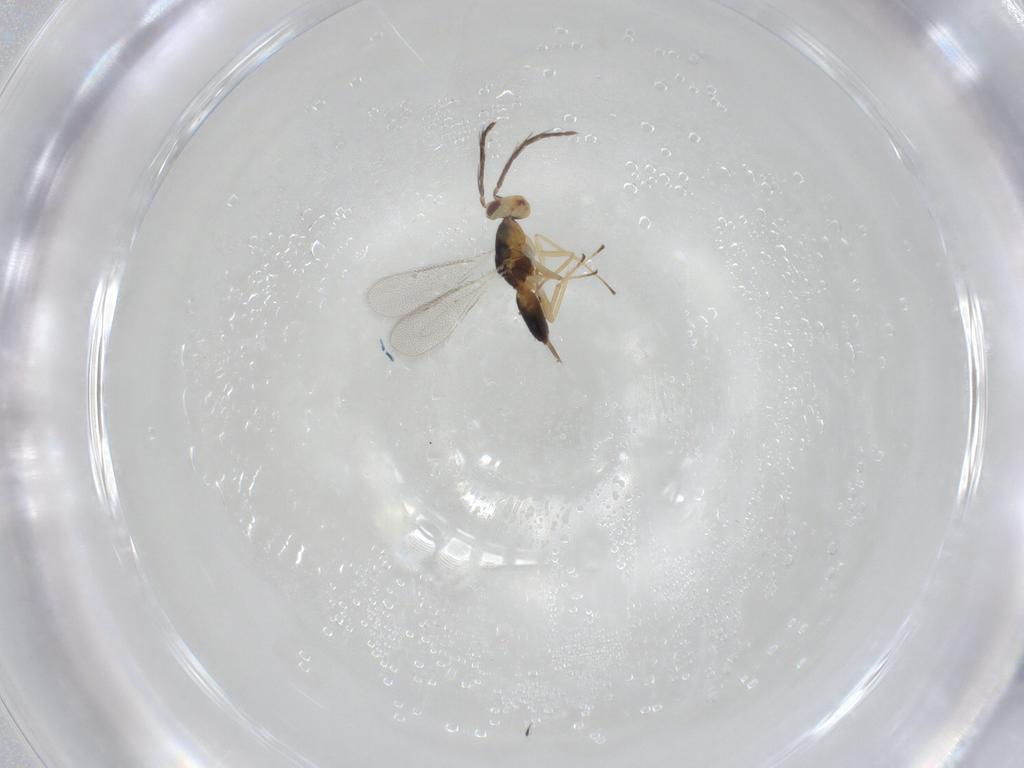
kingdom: Animalia
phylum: Arthropoda
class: Insecta
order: Hymenoptera
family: Eulophidae
